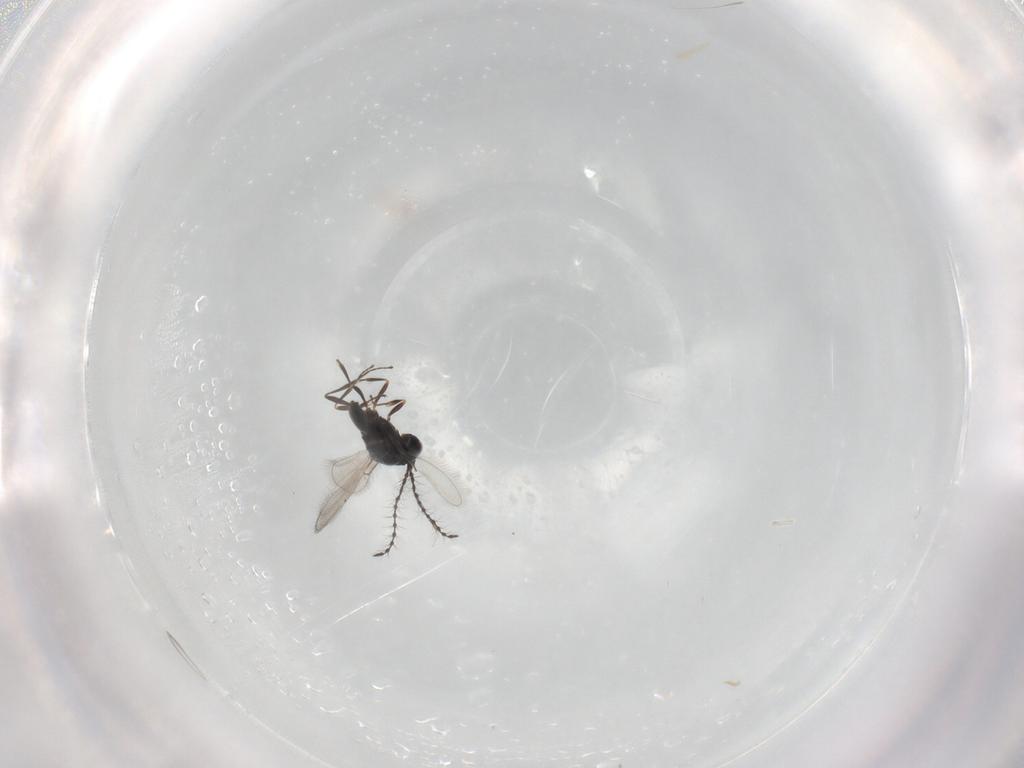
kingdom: Animalia
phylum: Arthropoda
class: Insecta
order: Hymenoptera
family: Scelionidae
